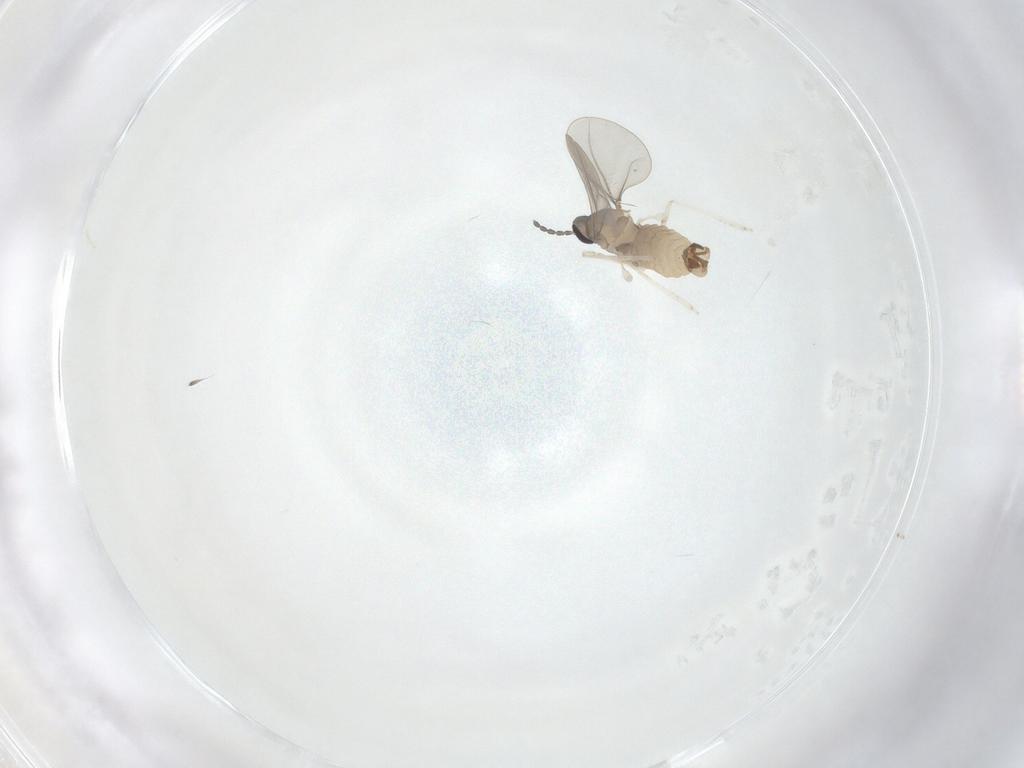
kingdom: Animalia
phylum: Arthropoda
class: Insecta
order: Diptera
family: Cecidomyiidae
